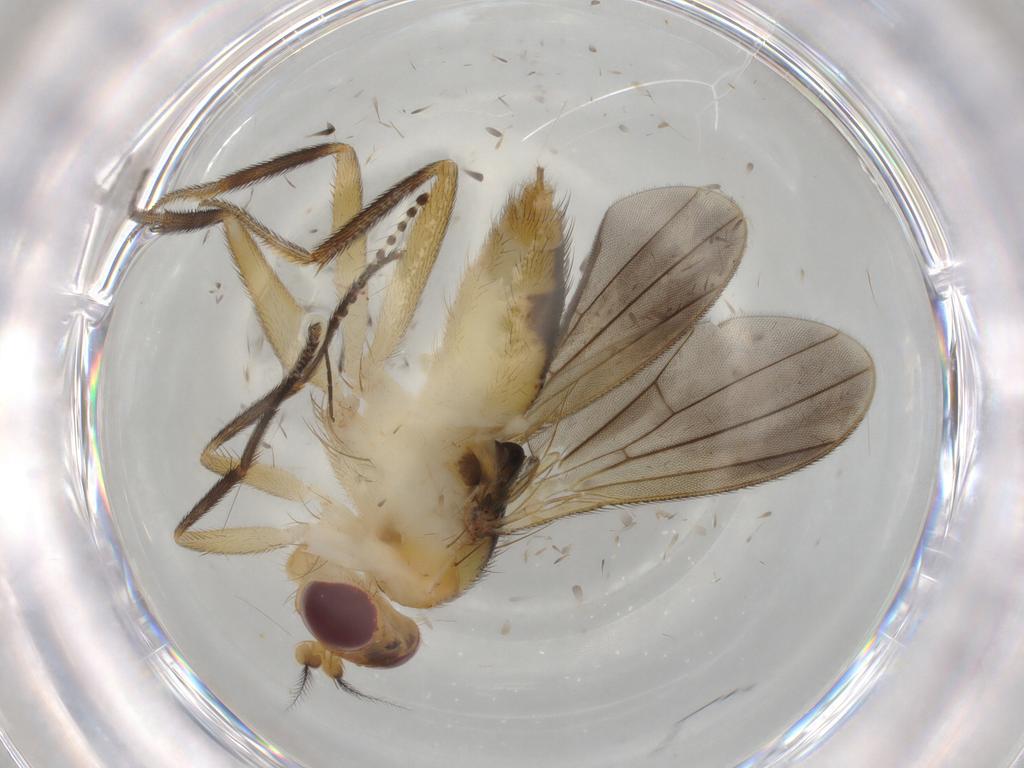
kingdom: Animalia
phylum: Arthropoda
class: Insecta
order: Diptera
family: Clusiidae
